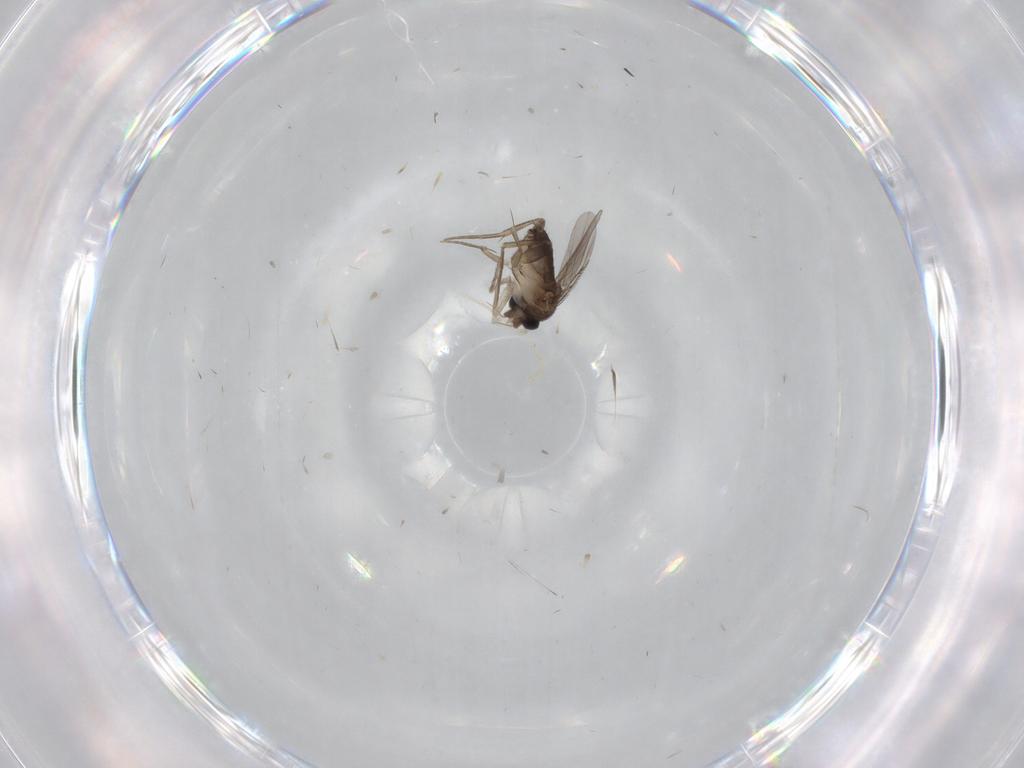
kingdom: Animalia
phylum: Arthropoda
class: Insecta
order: Diptera
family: Phoridae
